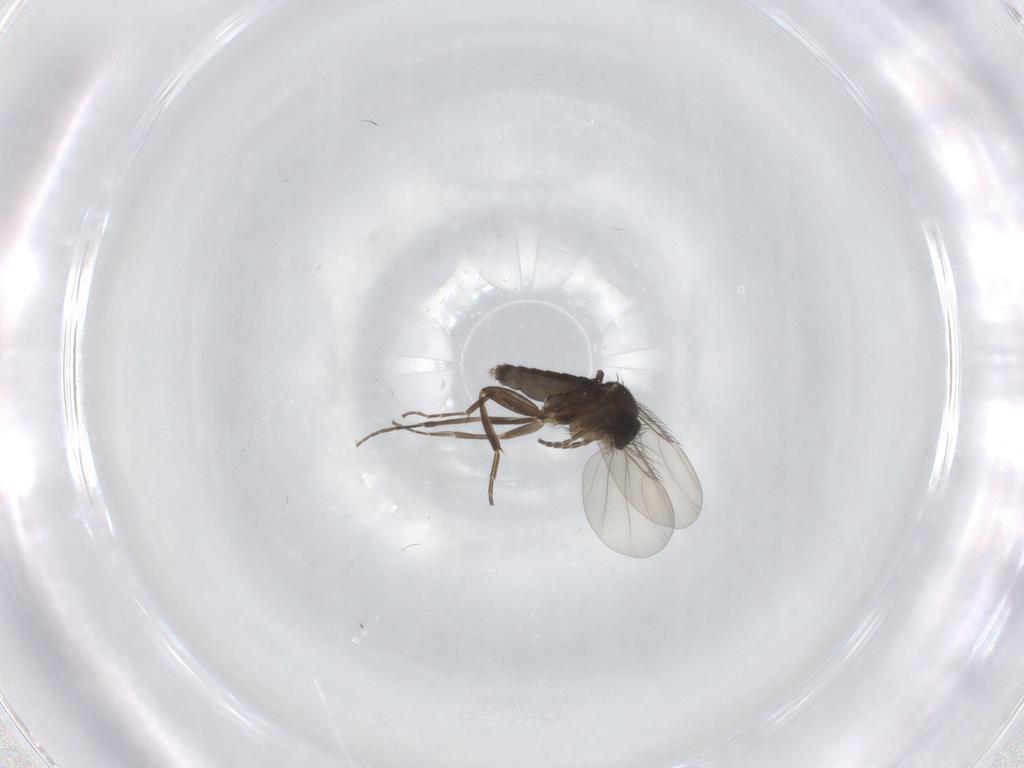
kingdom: Animalia
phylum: Arthropoda
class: Insecta
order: Diptera
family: Phoridae
